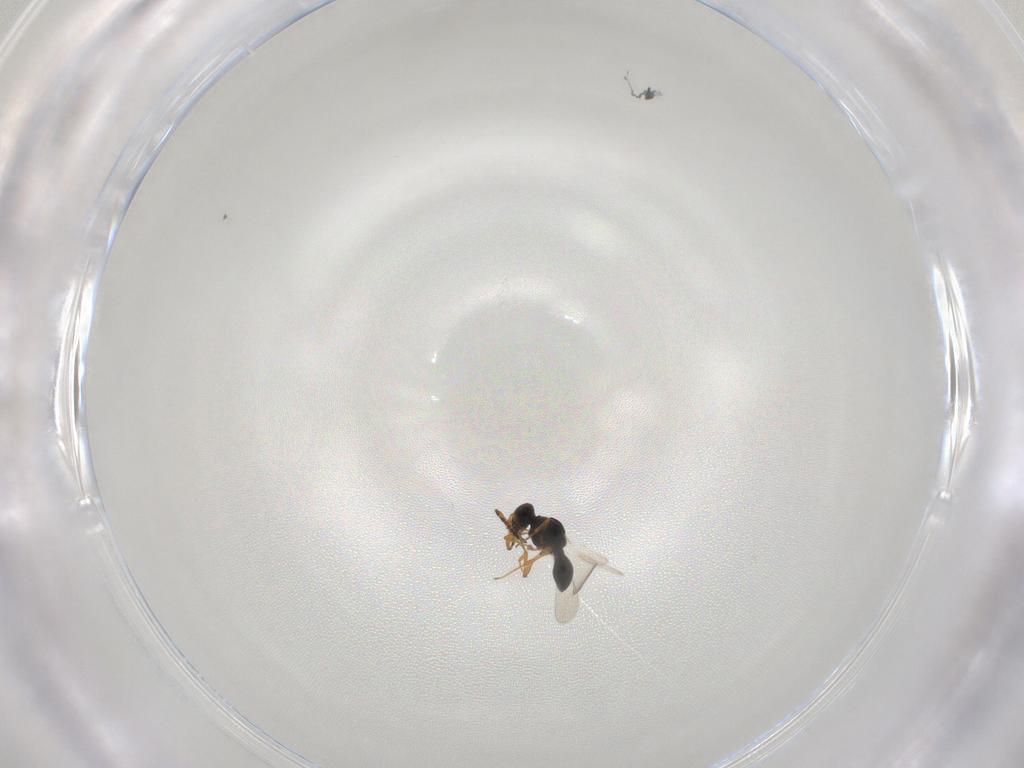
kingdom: Animalia
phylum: Arthropoda
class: Insecta
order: Hymenoptera
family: Platygastridae
